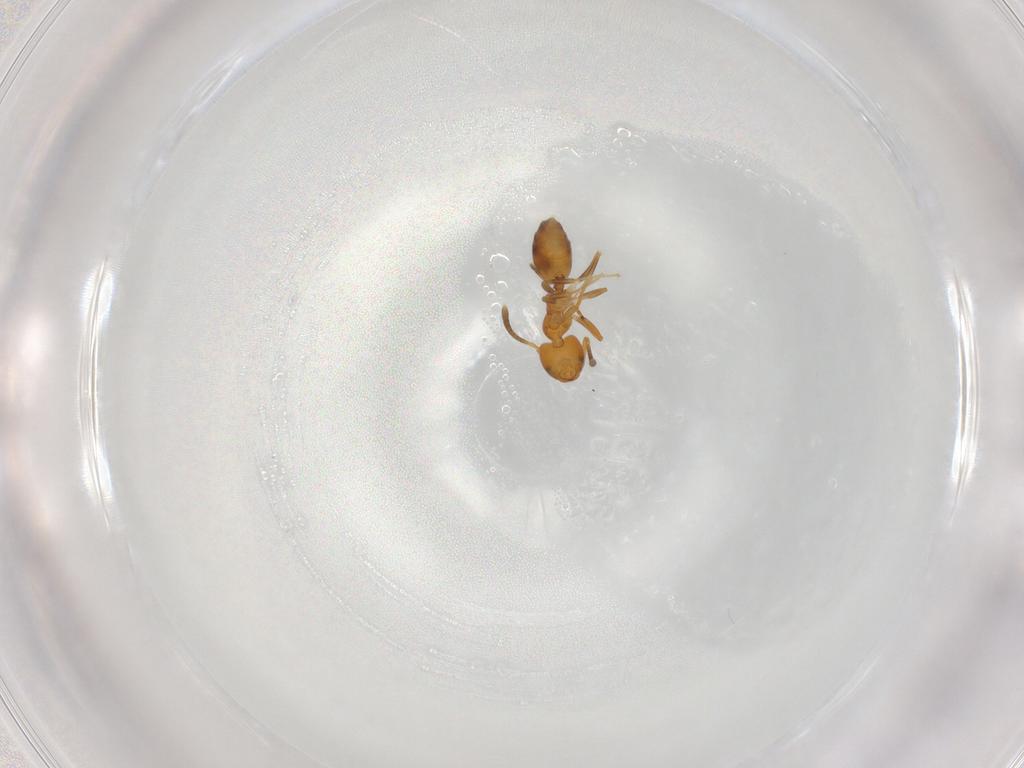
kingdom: Animalia
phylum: Arthropoda
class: Insecta
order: Hymenoptera
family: Formicidae
